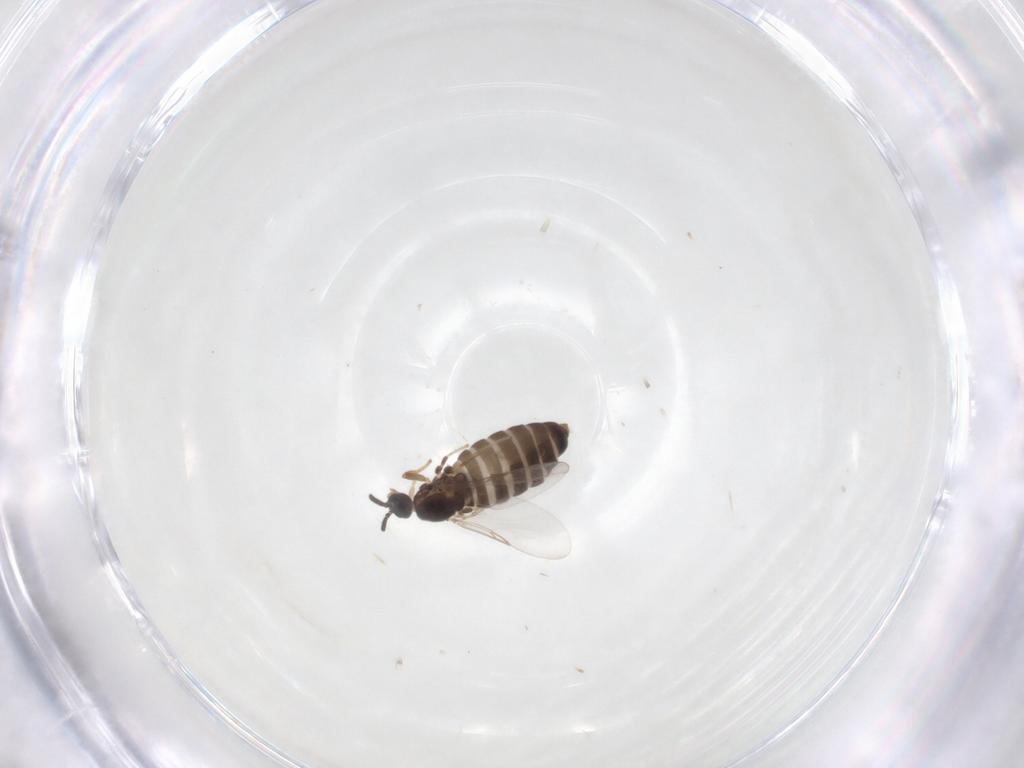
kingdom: Animalia
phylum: Arthropoda
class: Insecta
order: Diptera
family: Scatopsidae
